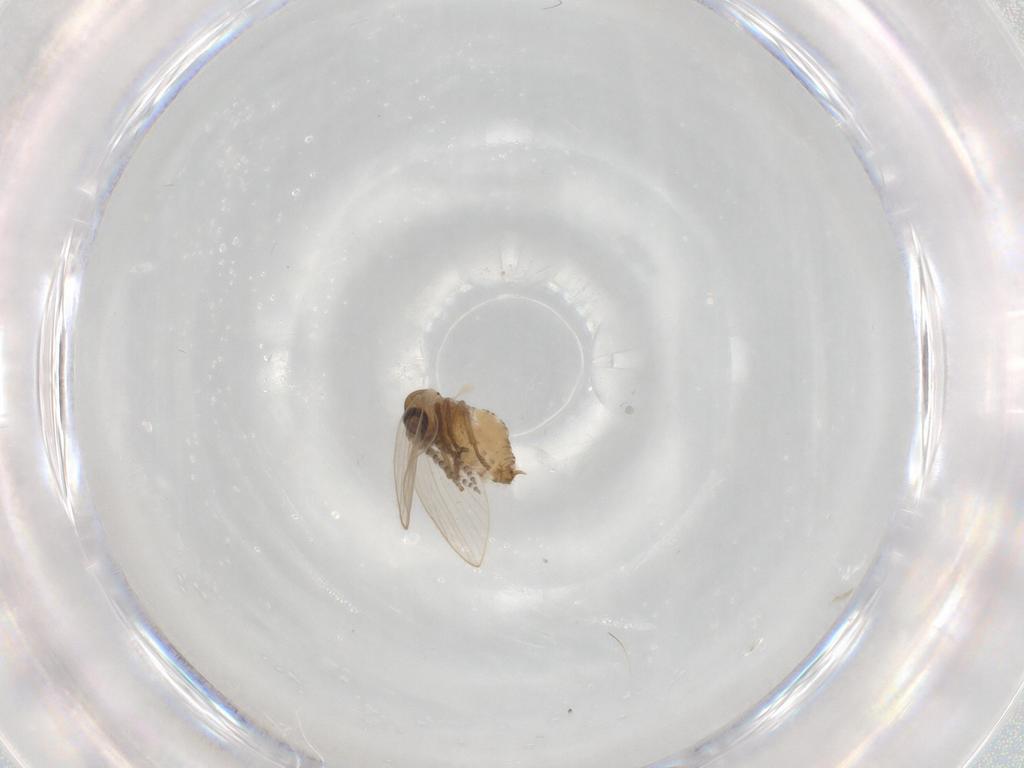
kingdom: Animalia
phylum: Arthropoda
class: Insecta
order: Diptera
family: Psychodidae
